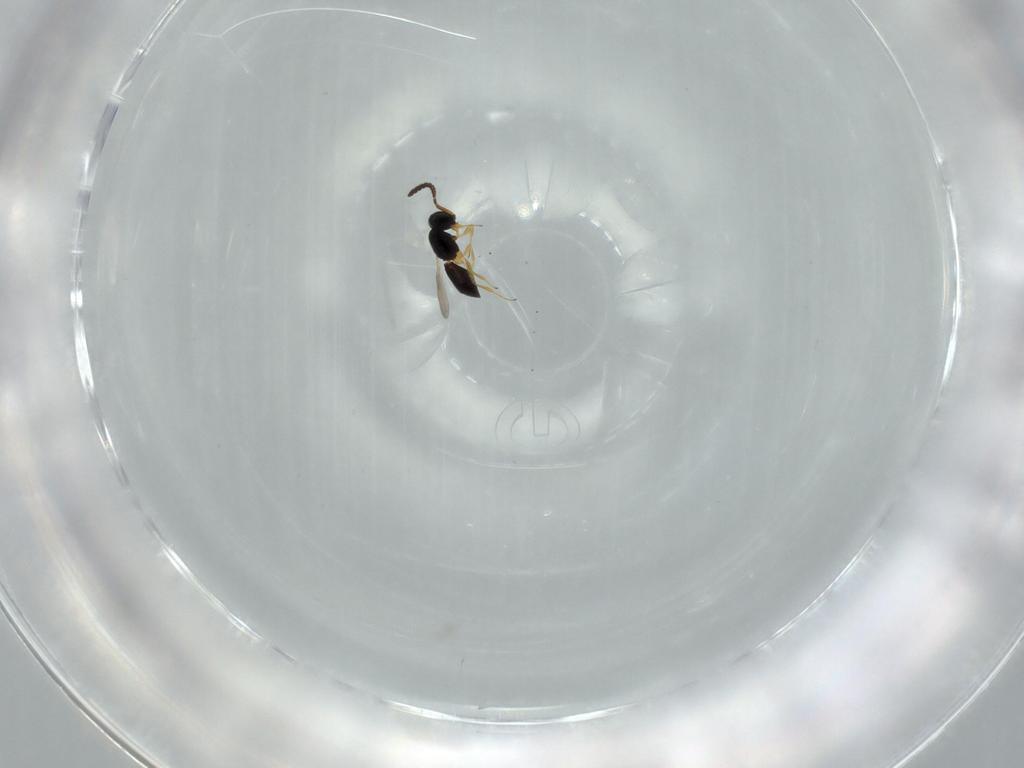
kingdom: Animalia
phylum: Arthropoda
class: Insecta
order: Hymenoptera
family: Scelionidae
